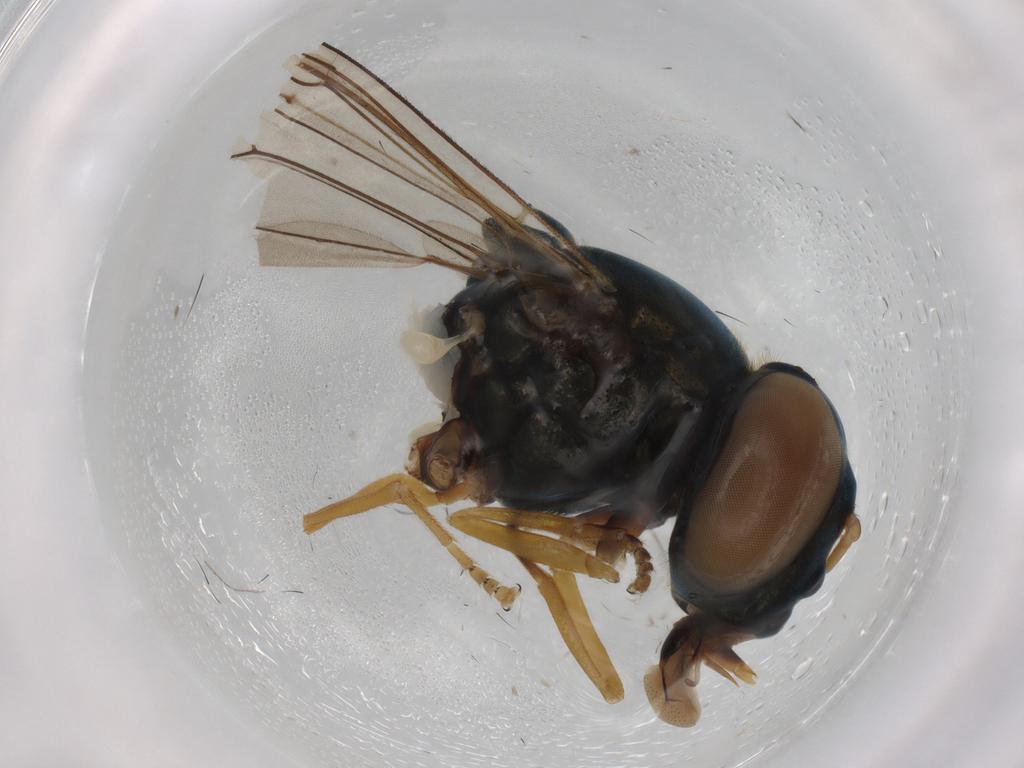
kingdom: Animalia
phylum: Arthropoda
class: Insecta
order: Diptera
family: Syrphidae
